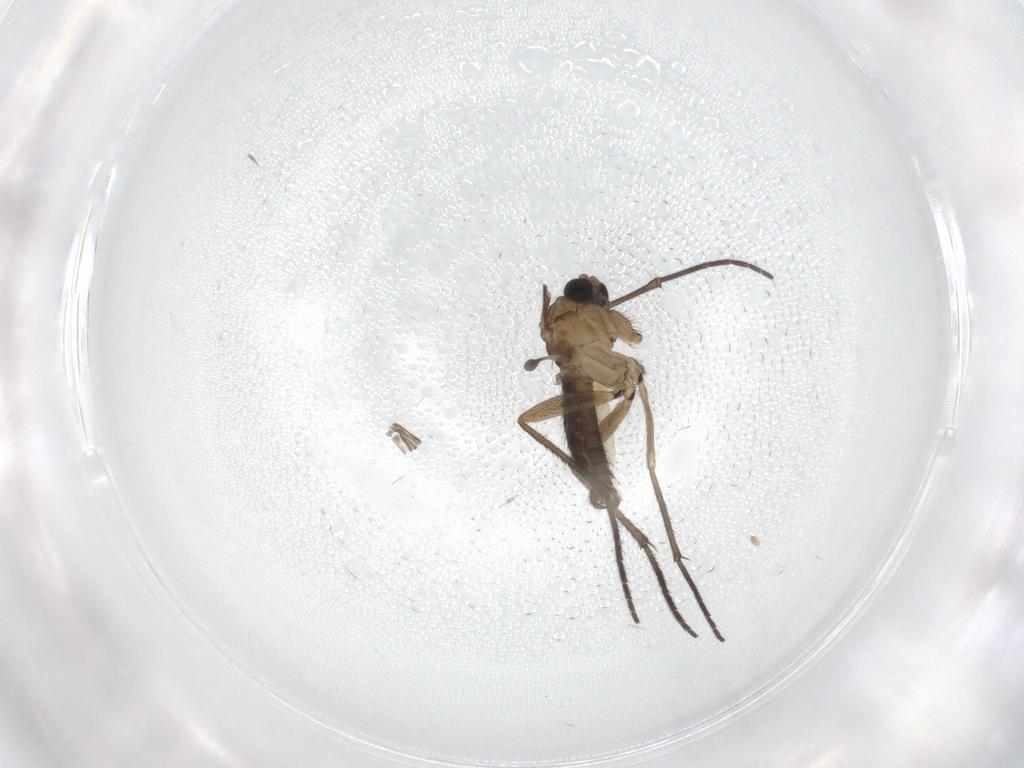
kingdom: Animalia
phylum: Arthropoda
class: Insecta
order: Diptera
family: Cecidomyiidae
